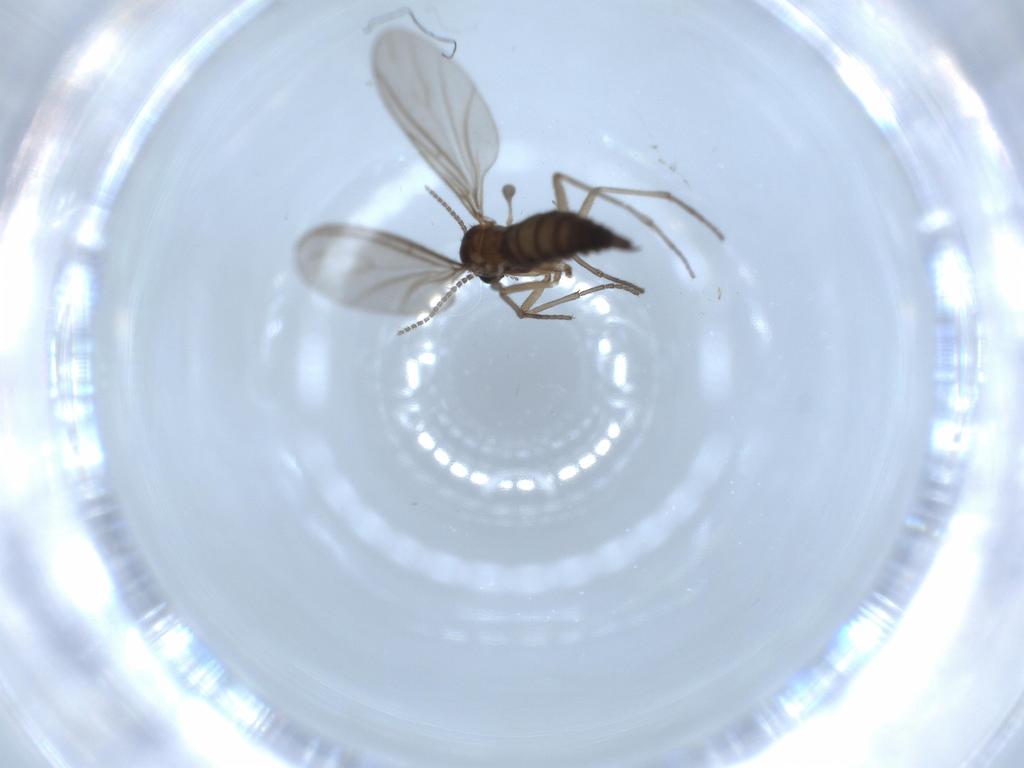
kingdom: Animalia
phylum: Arthropoda
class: Insecta
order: Diptera
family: Sciaridae
